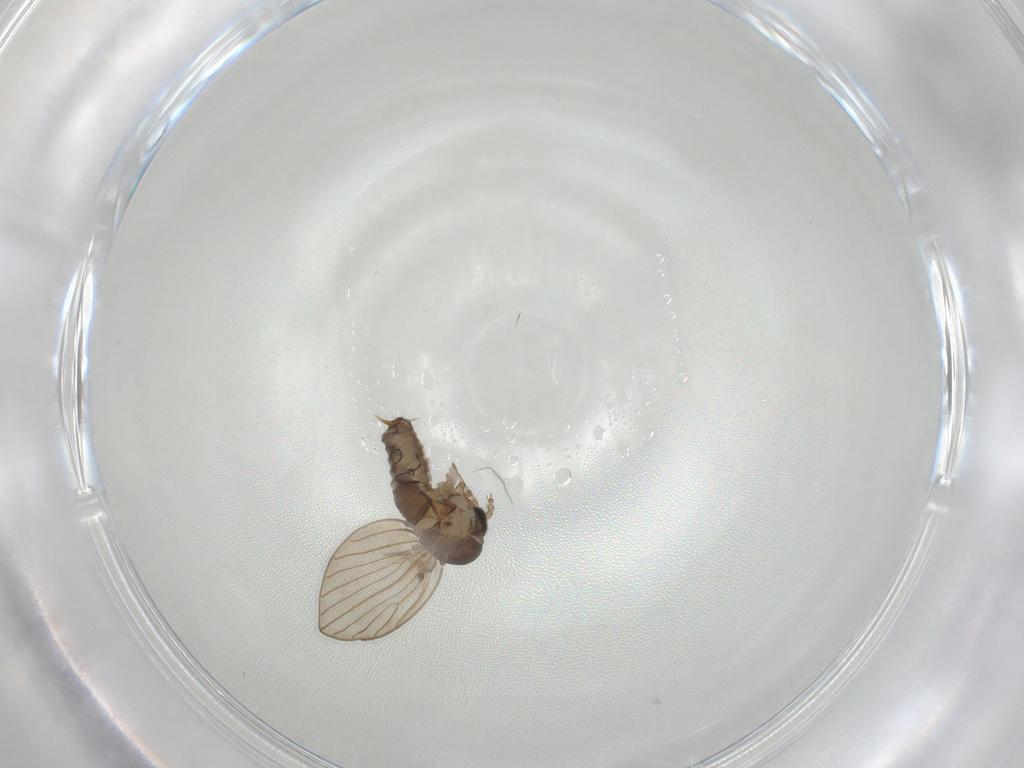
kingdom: Animalia
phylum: Arthropoda
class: Insecta
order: Diptera
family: Psychodidae
